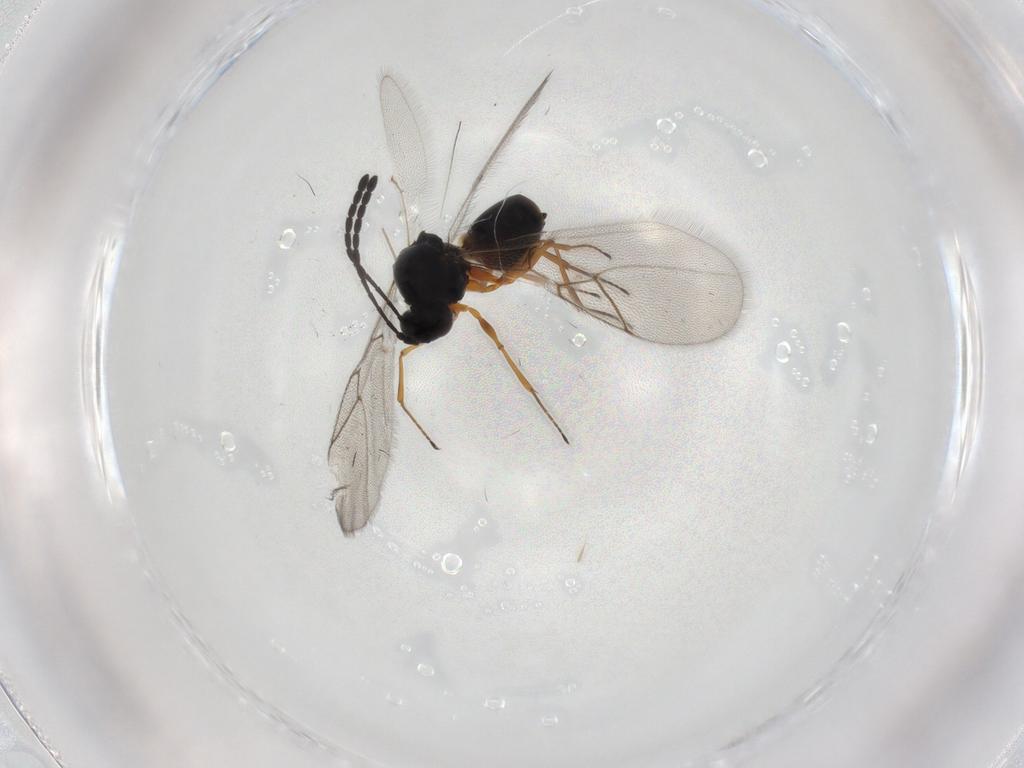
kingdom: Animalia
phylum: Arthropoda
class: Insecta
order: Hymenoptera
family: Figitidae
